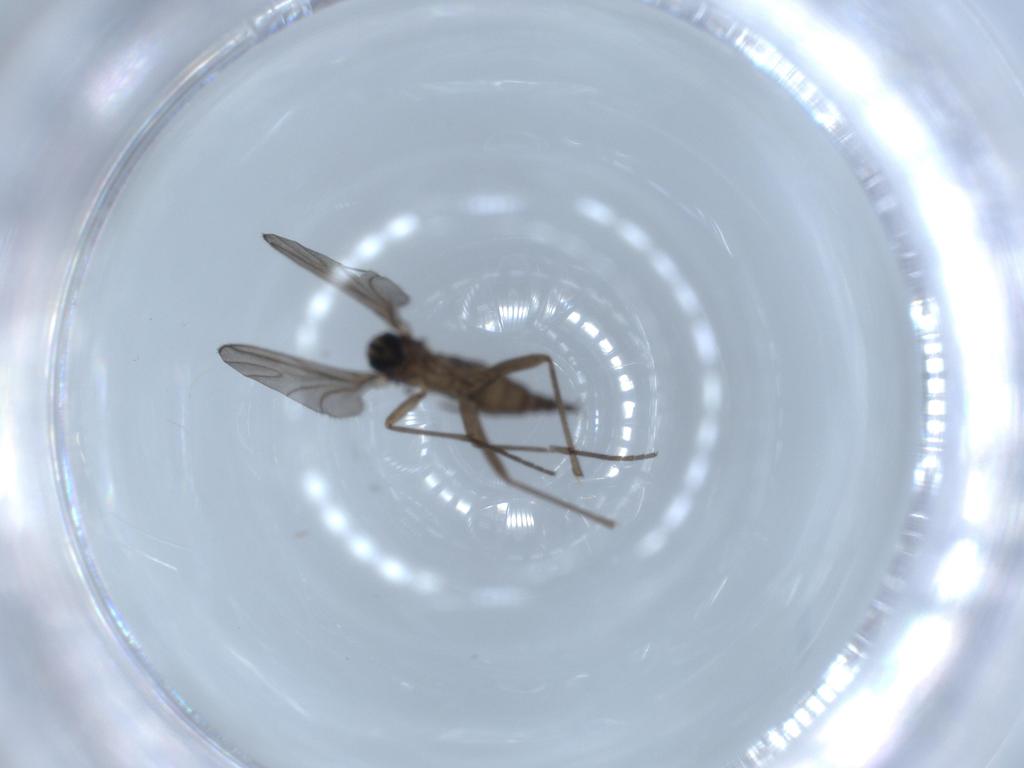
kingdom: Animalia
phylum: Arthropoda
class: Insecta
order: Diptera
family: Sciaridae
